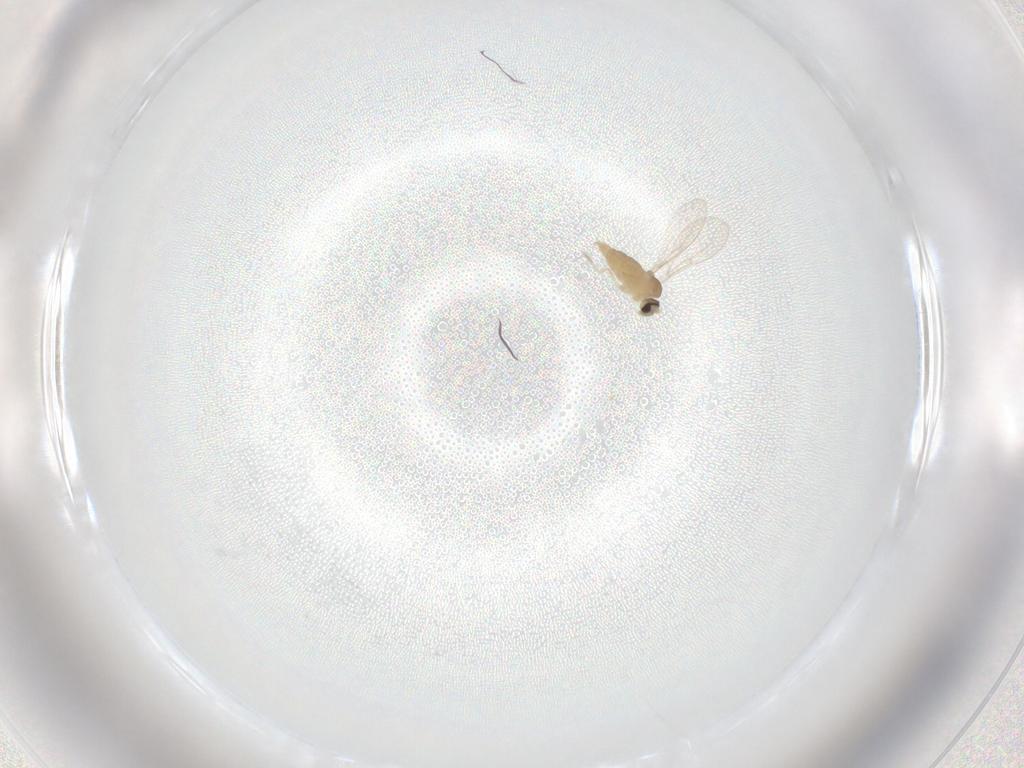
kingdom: Animalia
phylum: Arthropoda
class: Insecta
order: Diptera
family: Cecidomyiidae
